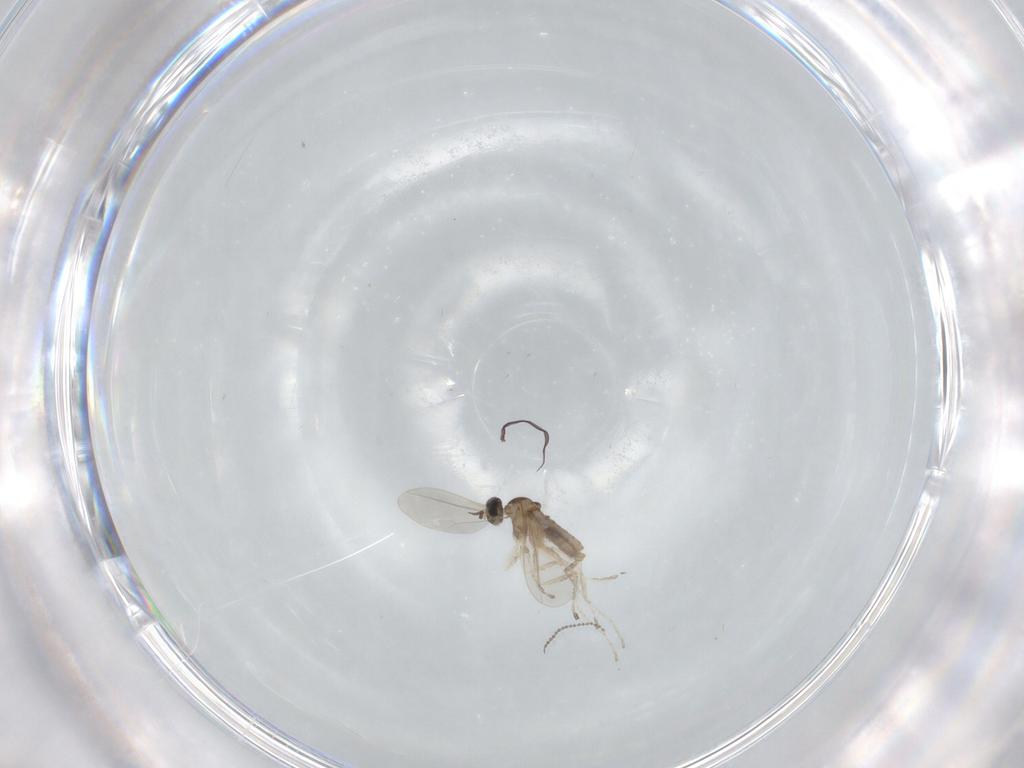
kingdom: Animalia
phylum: Arthropoda
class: Insecta
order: Diptera
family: Cecidomyiidae
